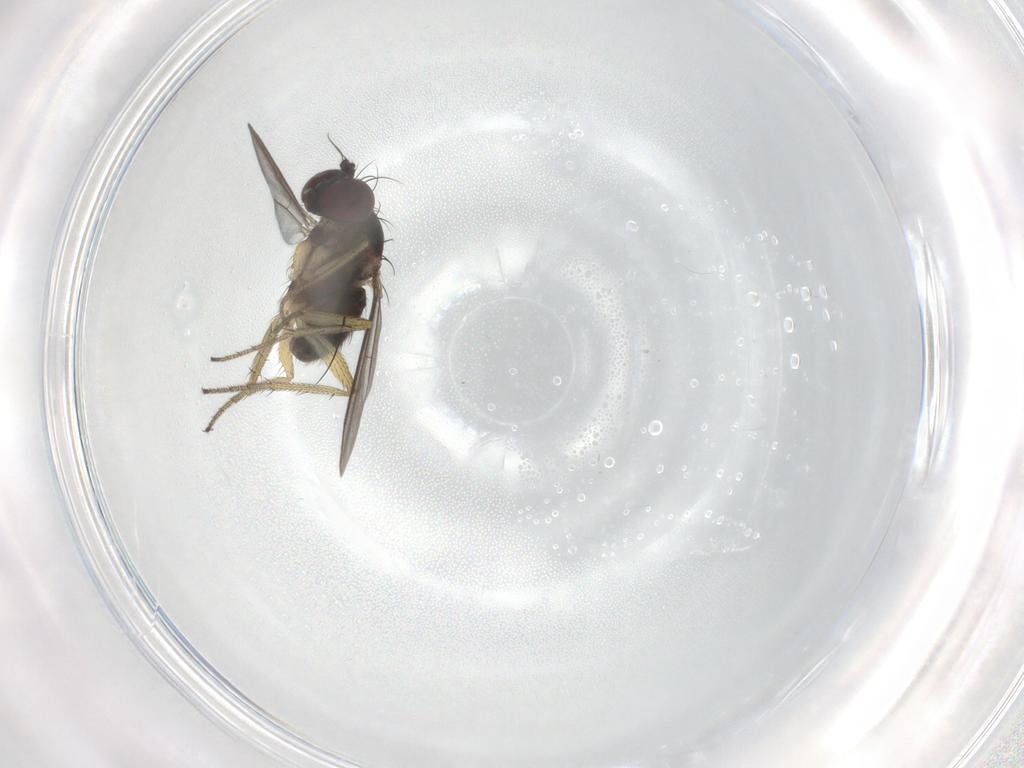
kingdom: Animalia
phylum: Arthropoda
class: Insecta
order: Diptera
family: Dolichopodidae
